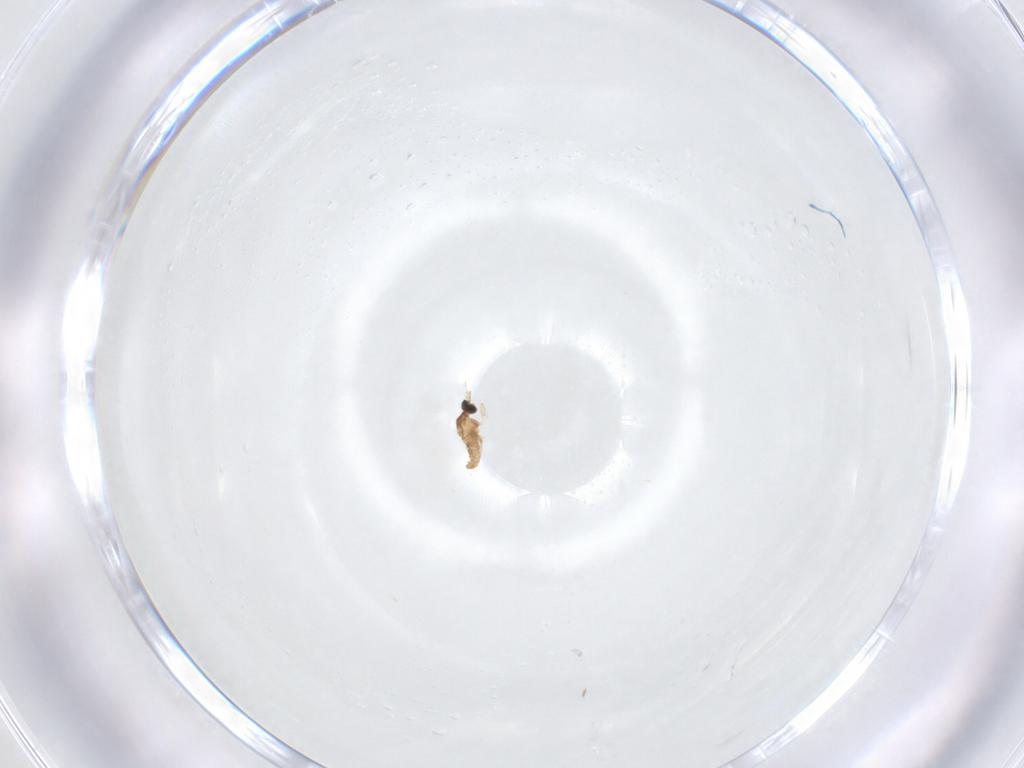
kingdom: Animalia
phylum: Arthropoda
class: Insecta
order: Diptera
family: Cecidomyiidae
